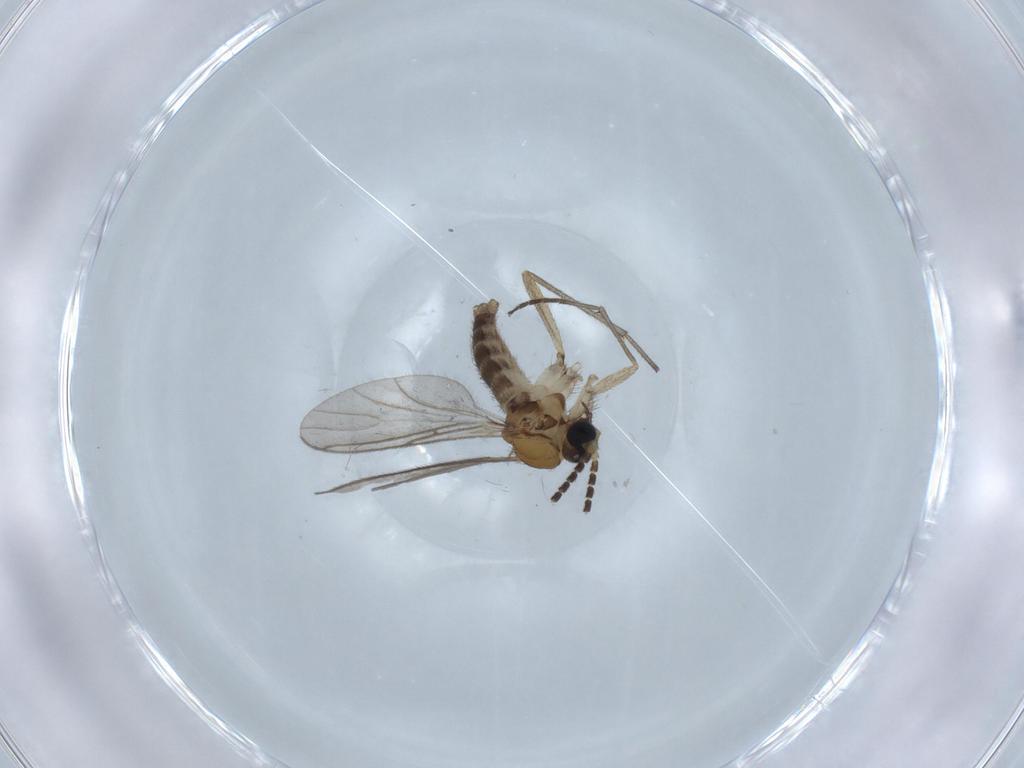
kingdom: Animalia
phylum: Arthropoda
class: Insecta
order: Diptera
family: Sciaridae
